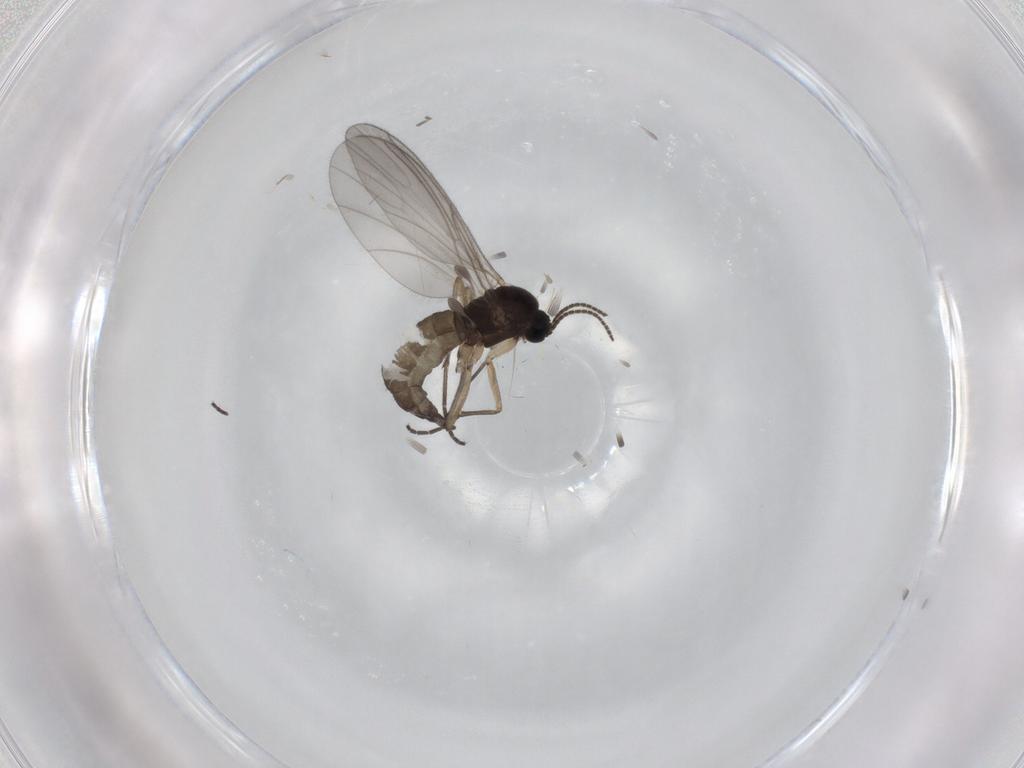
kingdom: Animalia
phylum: Arthropoda
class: Insecta
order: Diptera
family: Sciaridae
